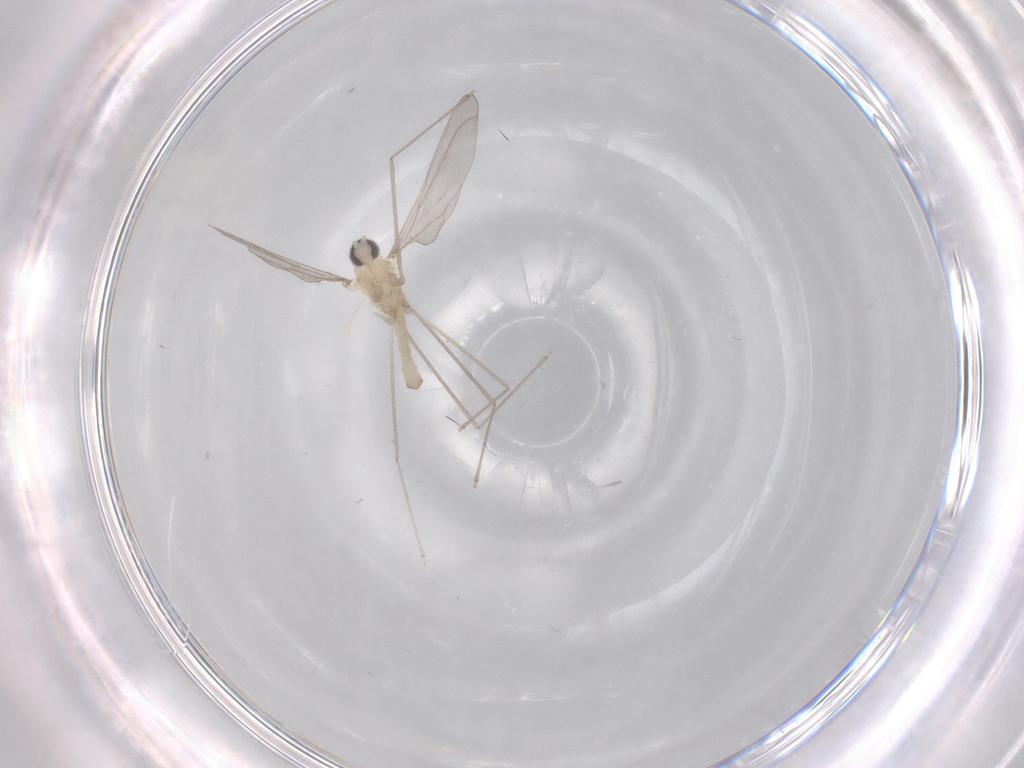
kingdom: Animalia
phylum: Arthropoda
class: Insecta
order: Diptera
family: Cecidomyiidae
